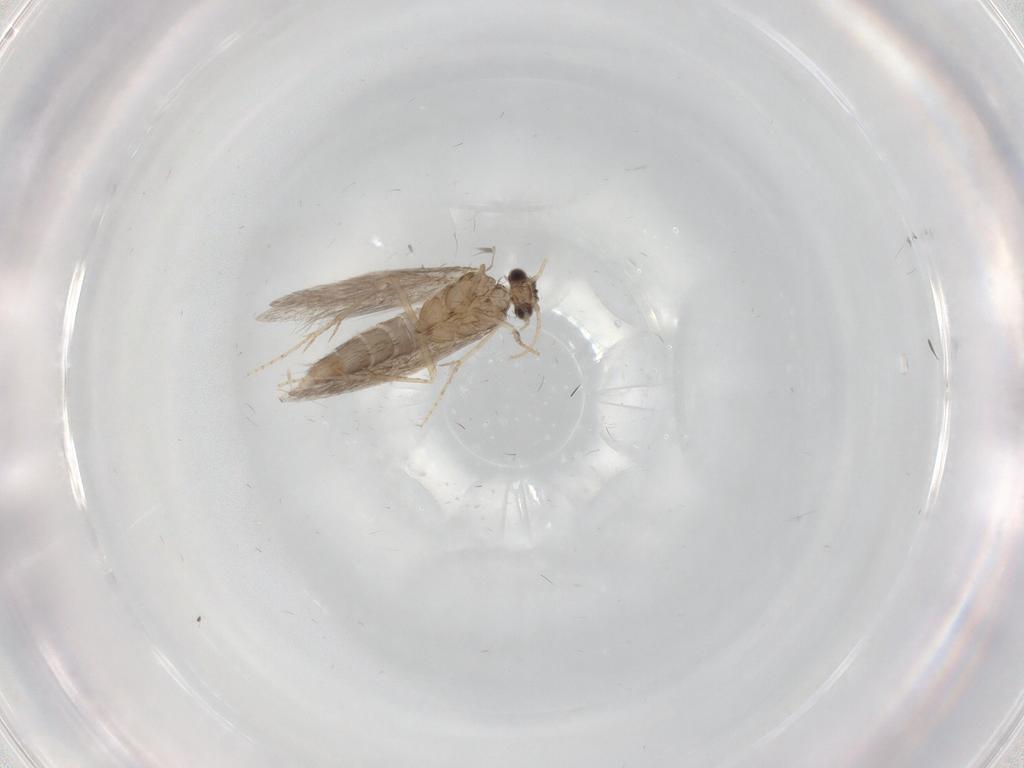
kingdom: Animalia
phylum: Arthropoda
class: Insecta
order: Trichoptera
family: Hydroptilidae
